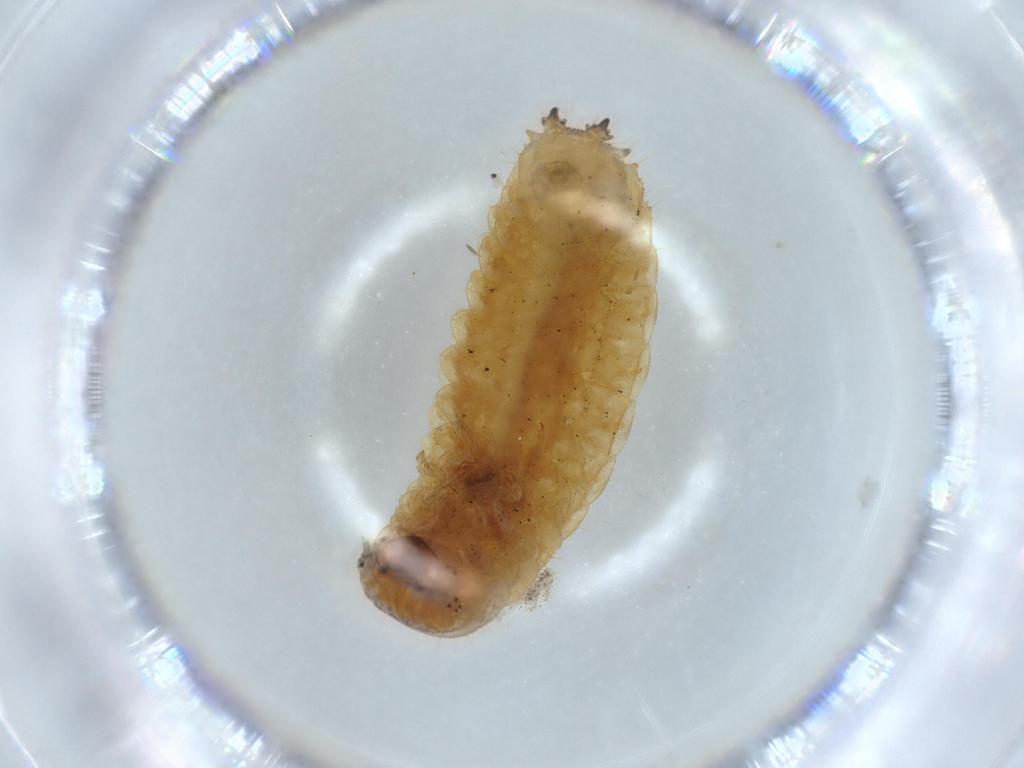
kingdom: Animalia
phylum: Arthropoda
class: Insecta
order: Coleoptera
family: Erotylidae
